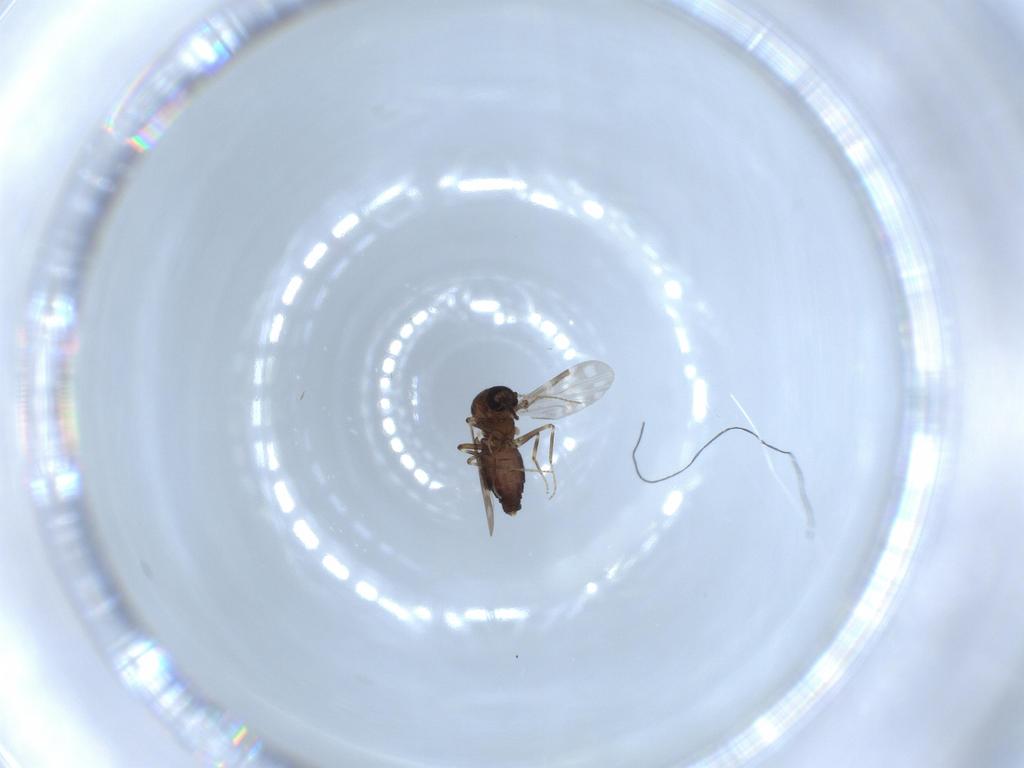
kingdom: Animalia
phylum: Arthropoda
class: Insecta
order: Diptera
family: Ceratopogonidae
